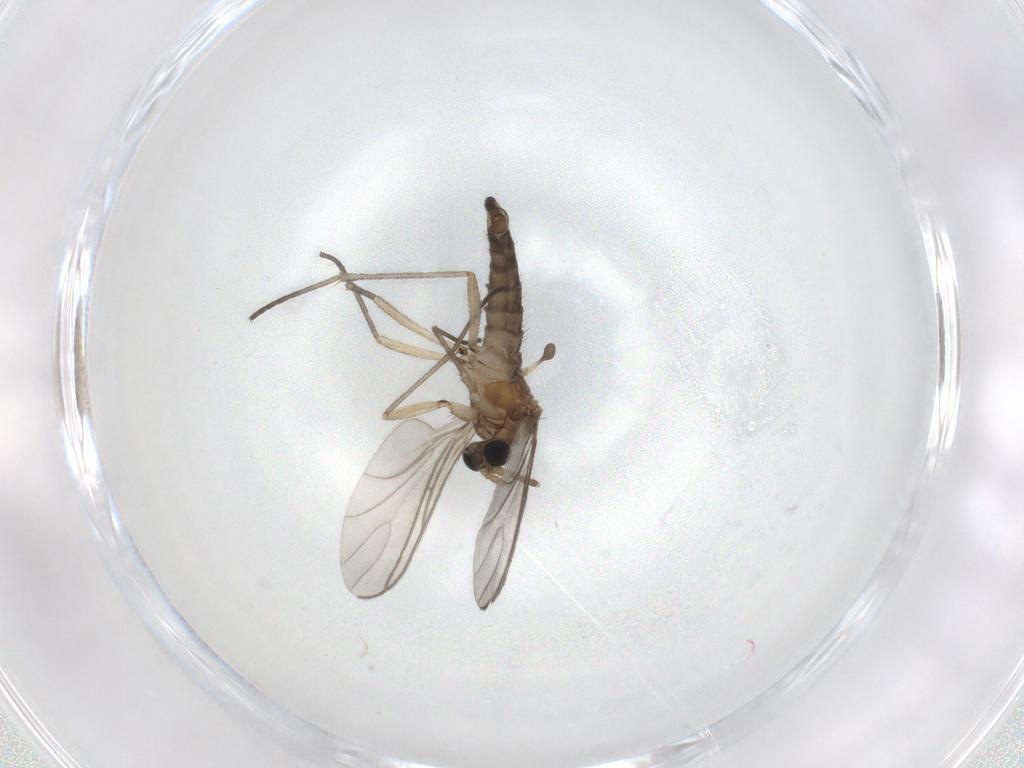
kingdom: Animalia
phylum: Arthropoda
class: Insecta
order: Diptera
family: Sciaridae
